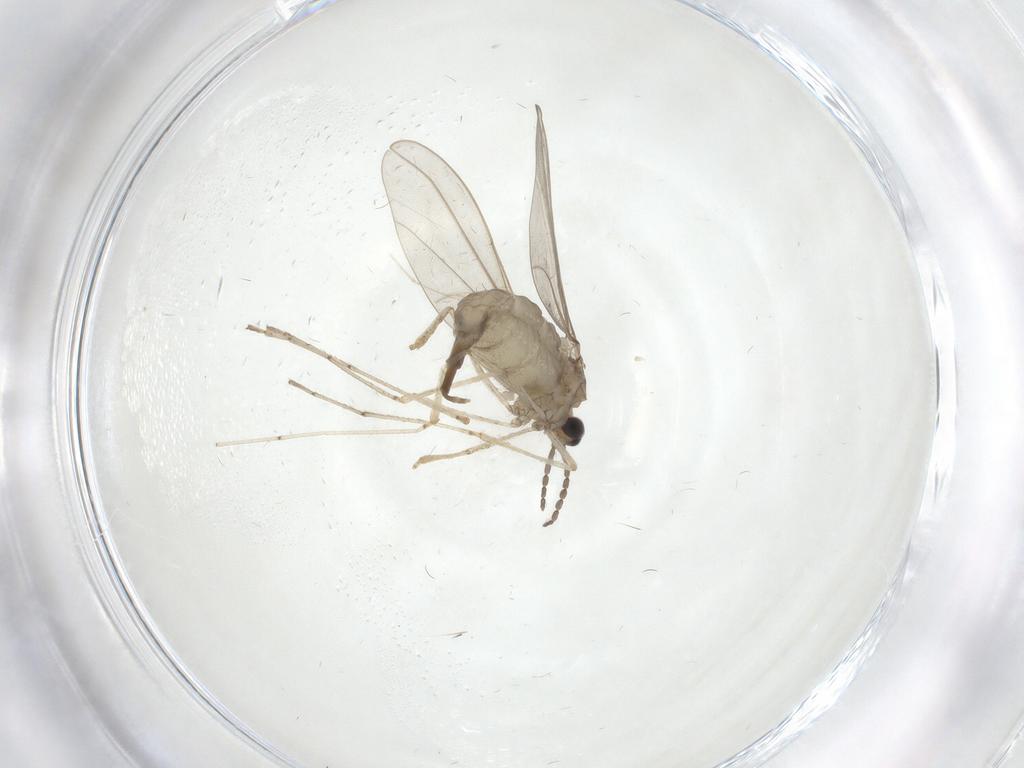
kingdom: Animalia
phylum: Arthropoda
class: Insecta
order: Diptera
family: Cecidomyiidae
